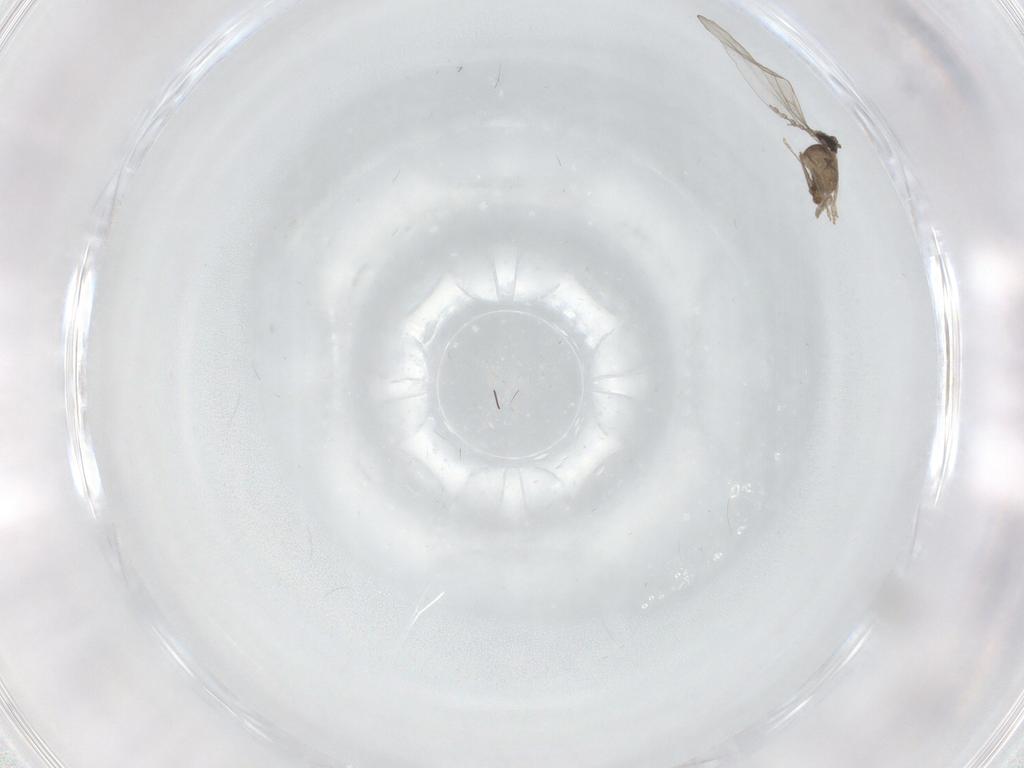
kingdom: Animalia
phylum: Arthropoda
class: Insecta
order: Diptera
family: Cecidomyiidae
